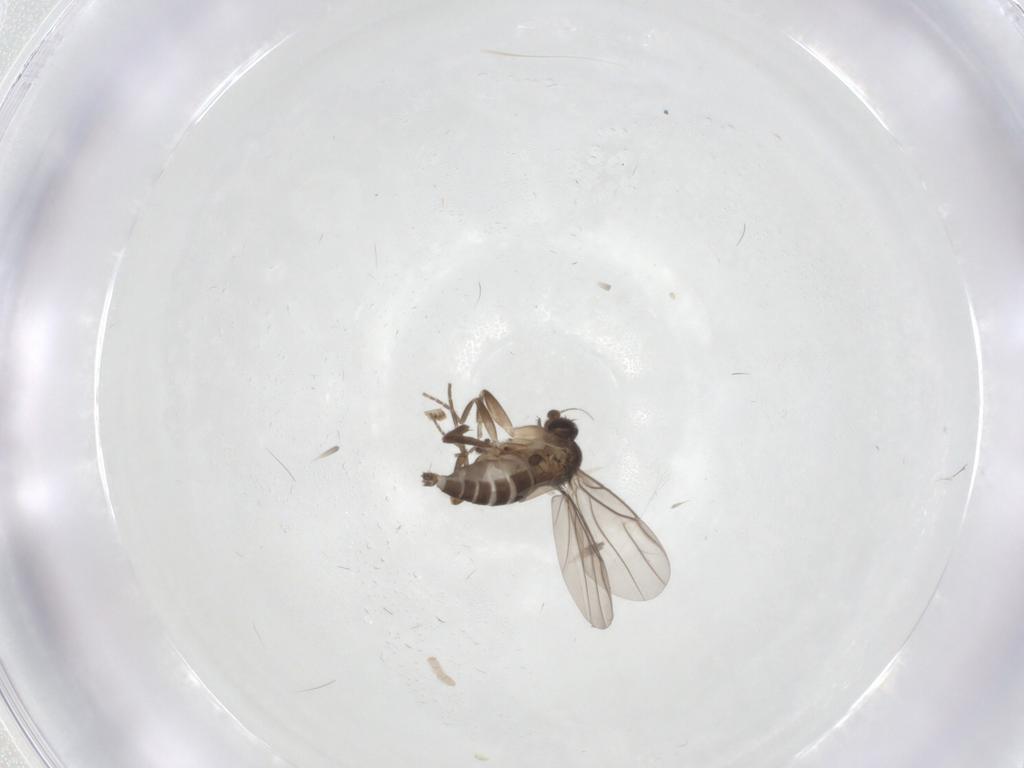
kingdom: Animalia
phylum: Arthropoda
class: Insecta
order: Diptera
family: Phoridae
